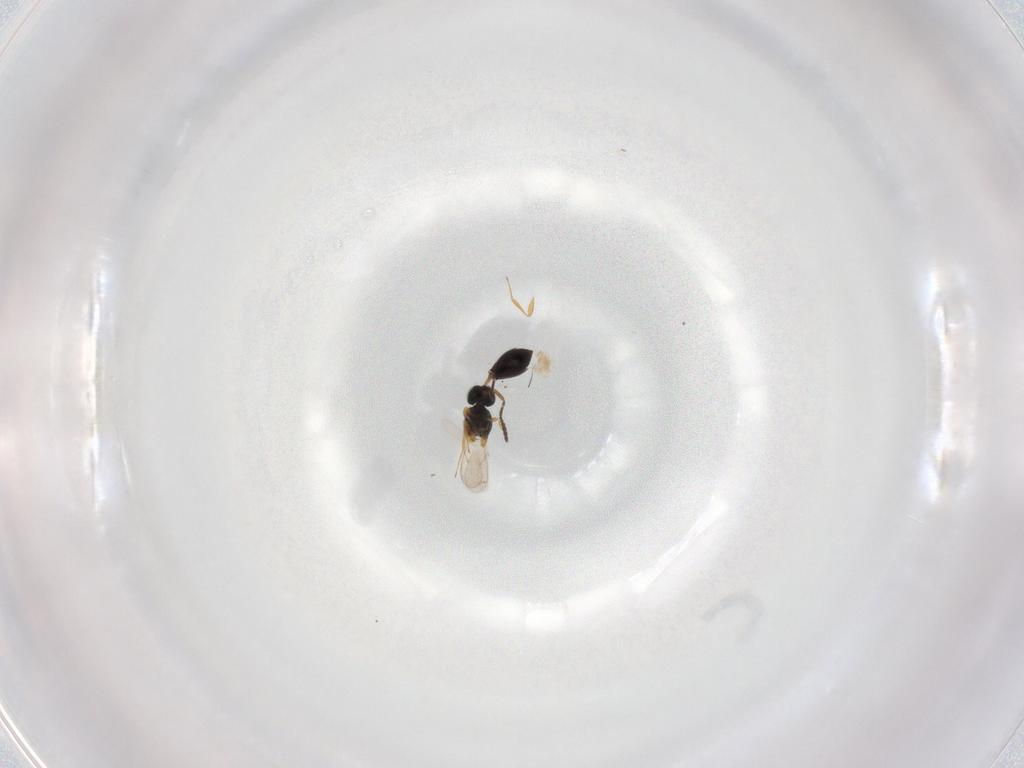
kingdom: Animalia
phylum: Arthropoda
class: Insecta
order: Hymenoptera
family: Scelionidae
